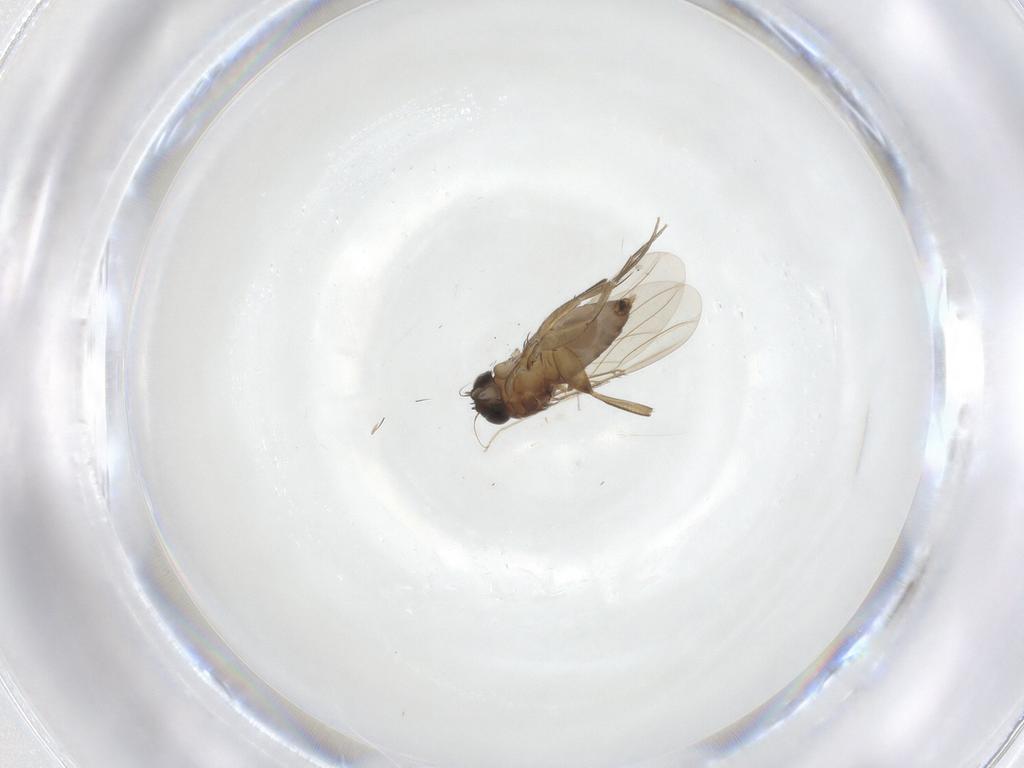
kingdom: Animalia
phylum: Arthropoda
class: Insecta
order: Diptera
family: Phoridae
